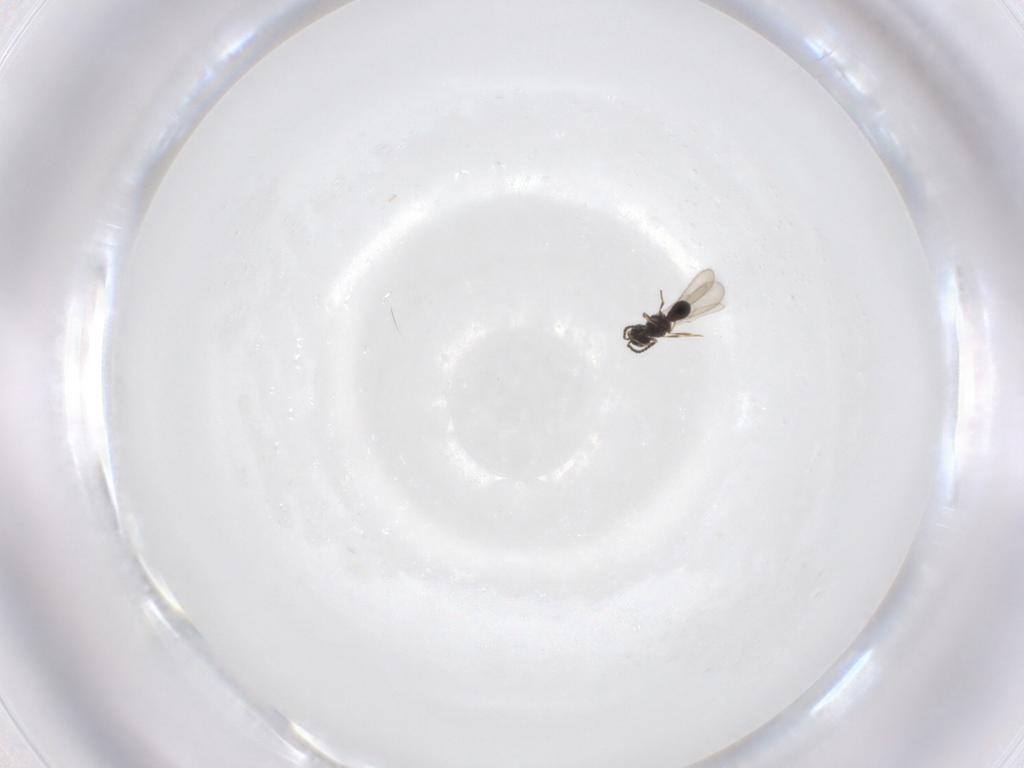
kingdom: Animalia
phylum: Arthropoda
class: Insecta
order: Hymenoptera
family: Scelionidae
